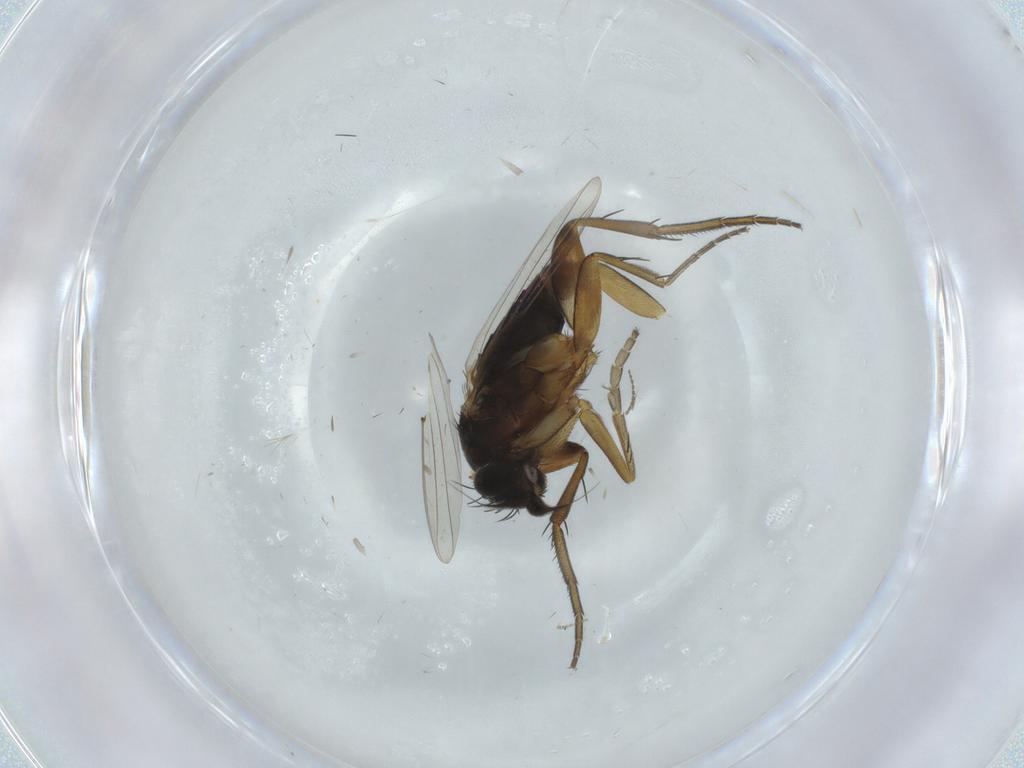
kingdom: Animalia
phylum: Arthropoda
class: Insecta
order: Diptera
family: Phoridae
